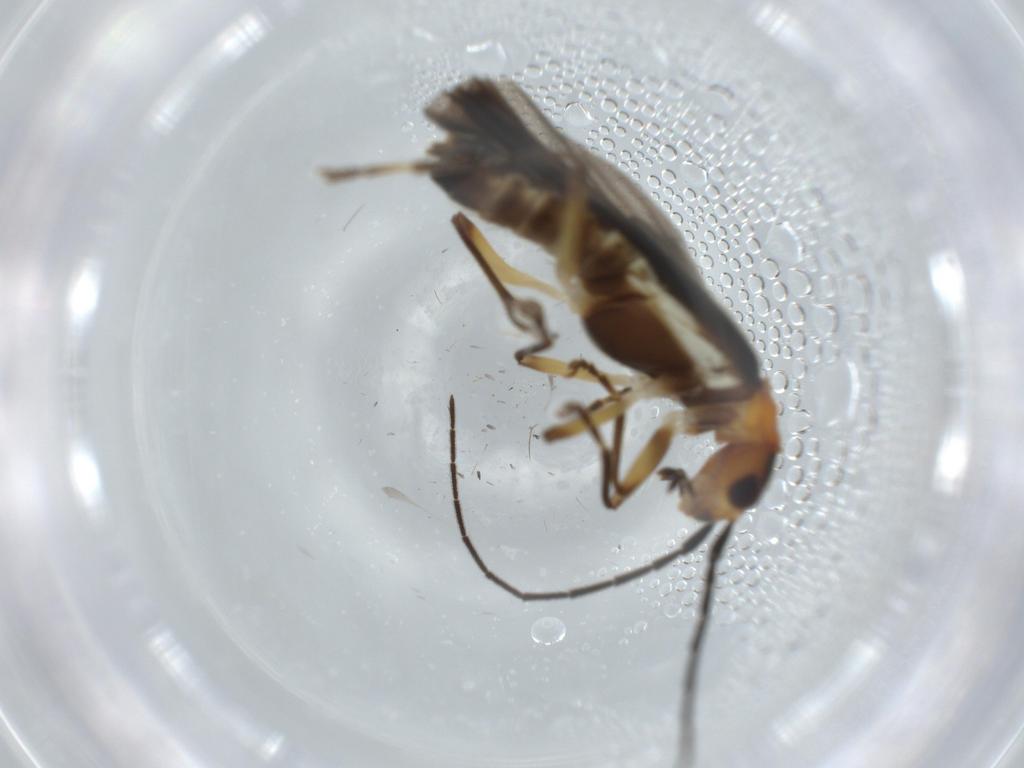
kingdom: Animalia
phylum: Arthropoda
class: Insecta
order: Coleoptera
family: Cantharidae
